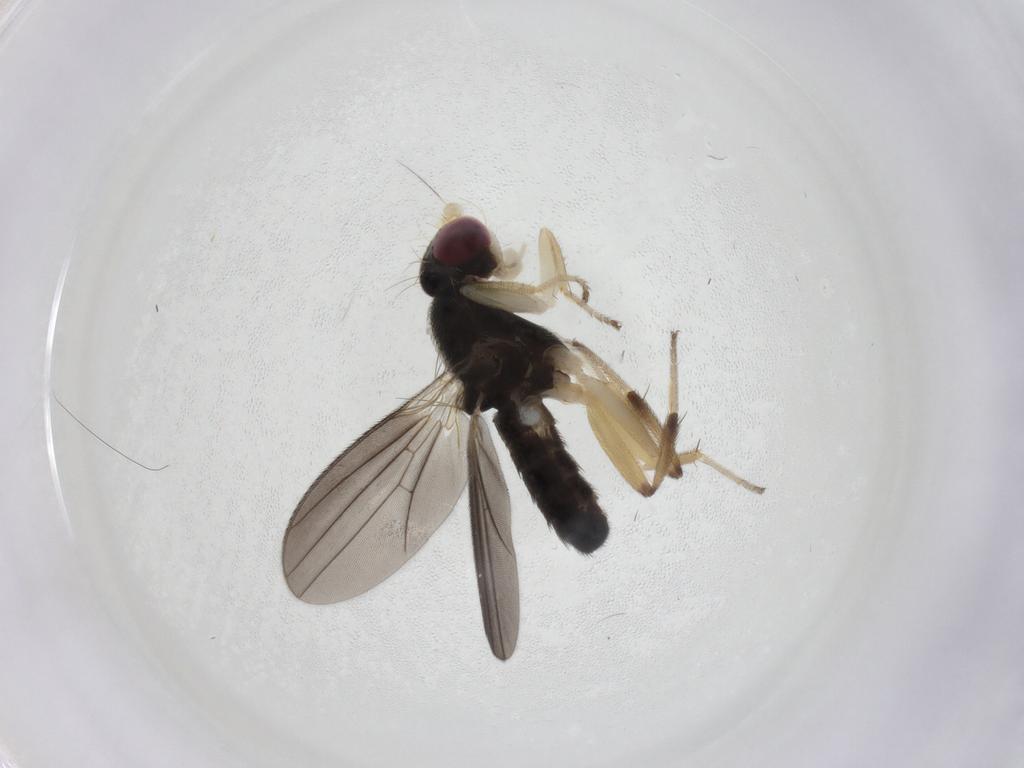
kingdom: Animalia
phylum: Arthropoda
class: Insecta
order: Diptera
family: Clusiidae
